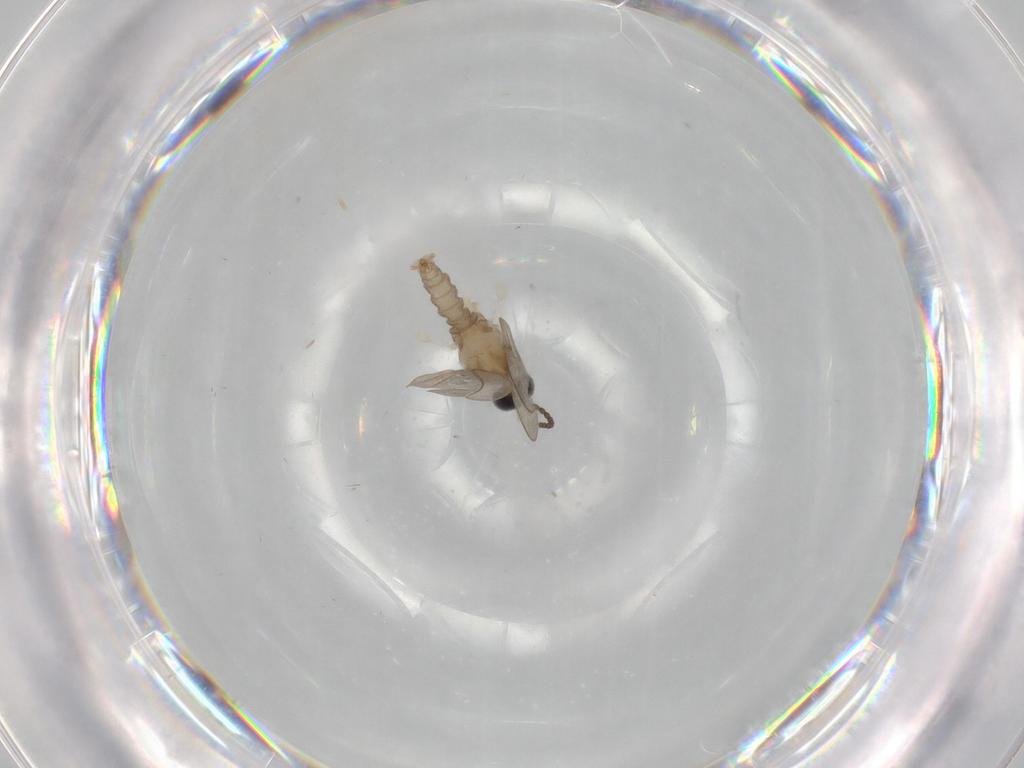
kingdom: Animalia
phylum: Arthropoda
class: Insecta
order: Diptera
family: Cecidomyiidae
